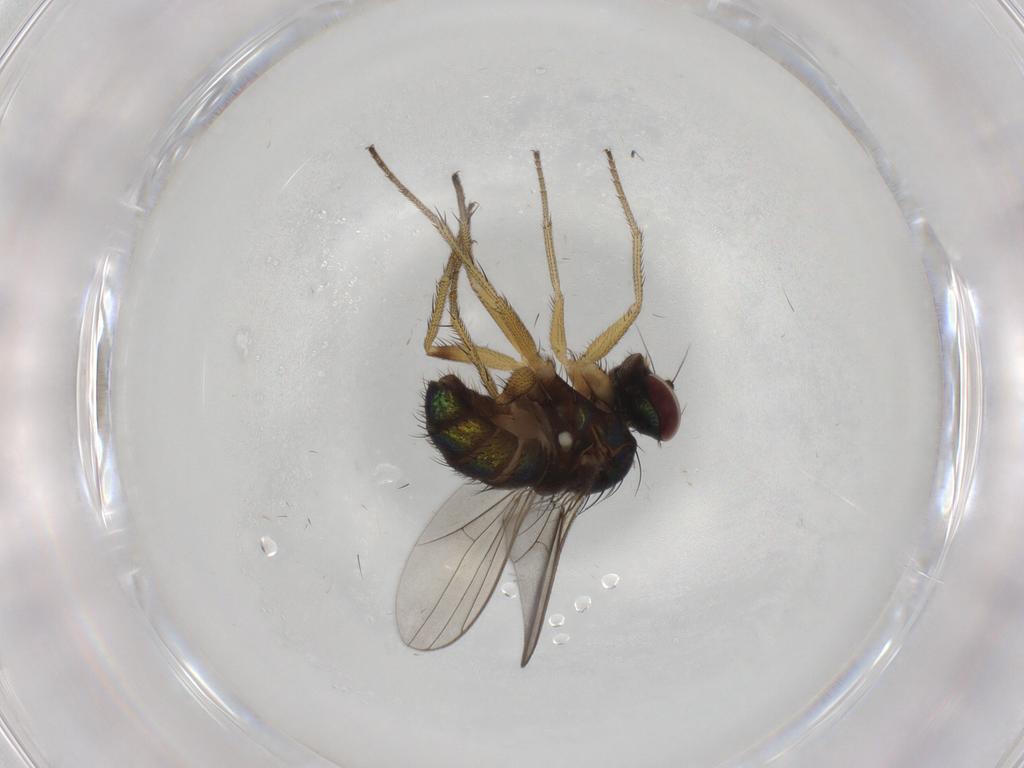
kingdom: Animalia
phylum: Arthropoda
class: Insecta
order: Diptera
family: Dolichopodidae
